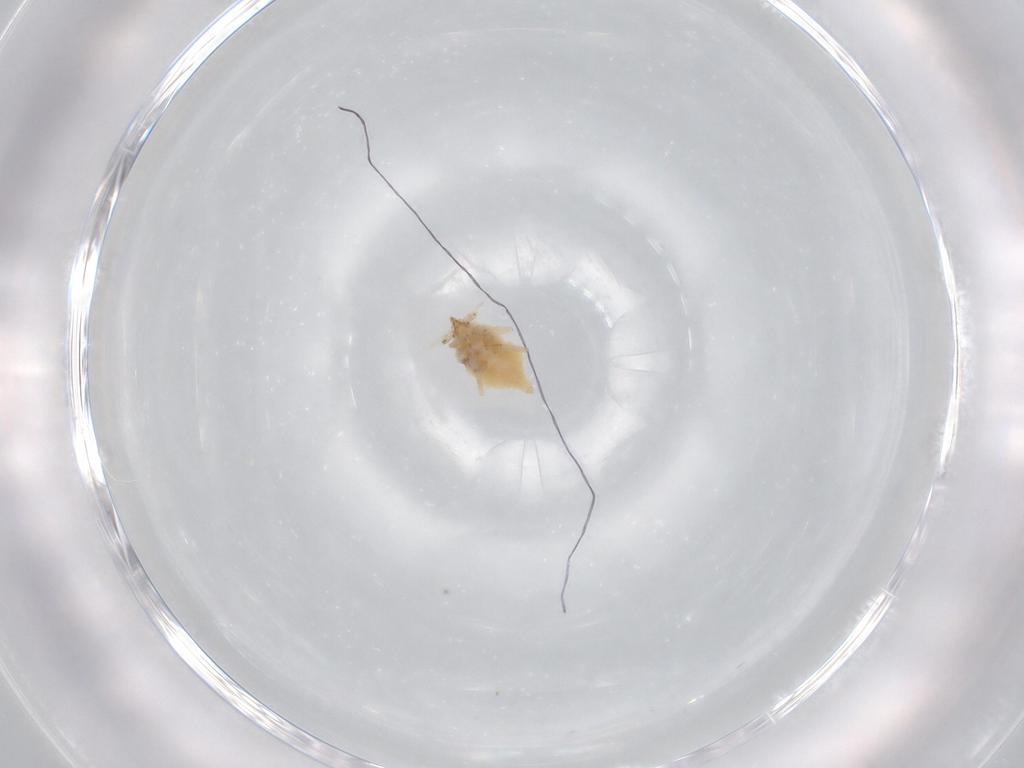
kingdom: Animalia
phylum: Arthropoda
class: Insecta
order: Neuroptera
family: Coniopterygidae
